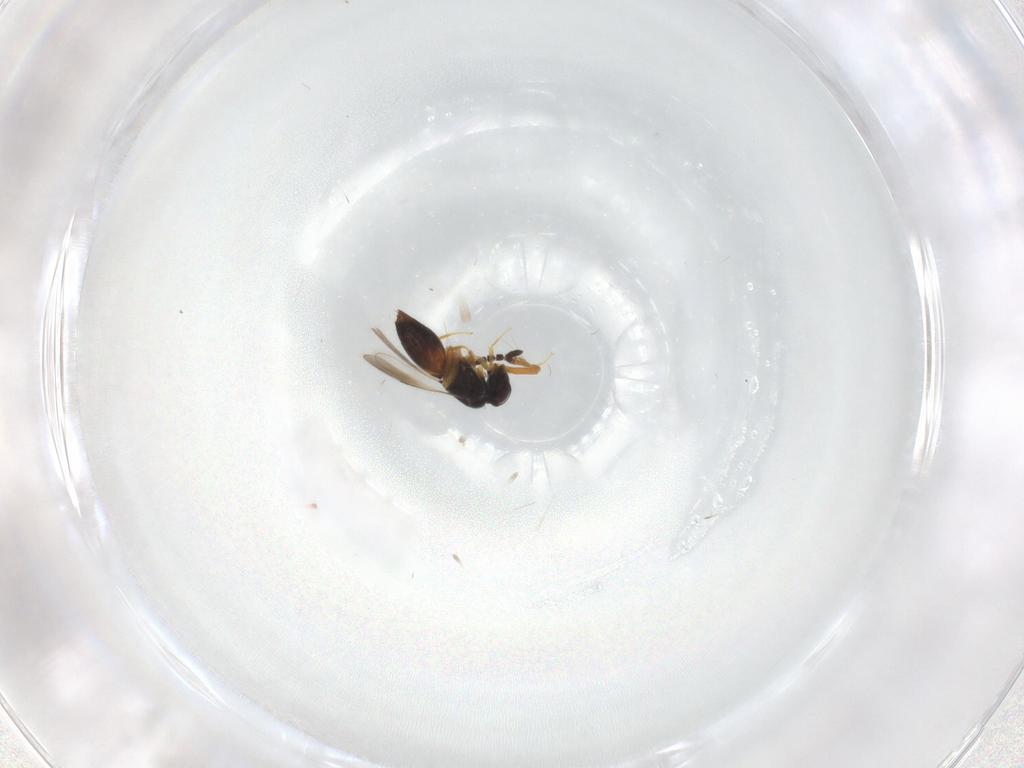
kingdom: Animalia
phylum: Arthropoda
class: Insecta
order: Hymenoptera
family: Ceraphronidae
